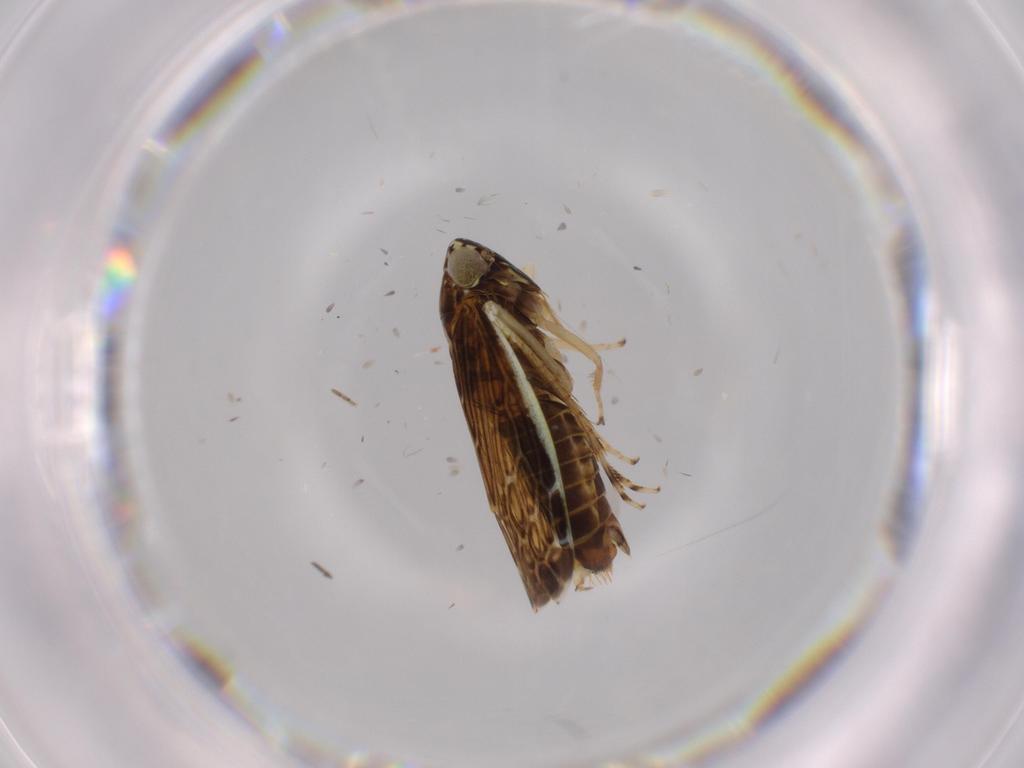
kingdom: Animalia
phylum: Arthropoda
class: Insecta
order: Hemiptera
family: Cicadellidae
